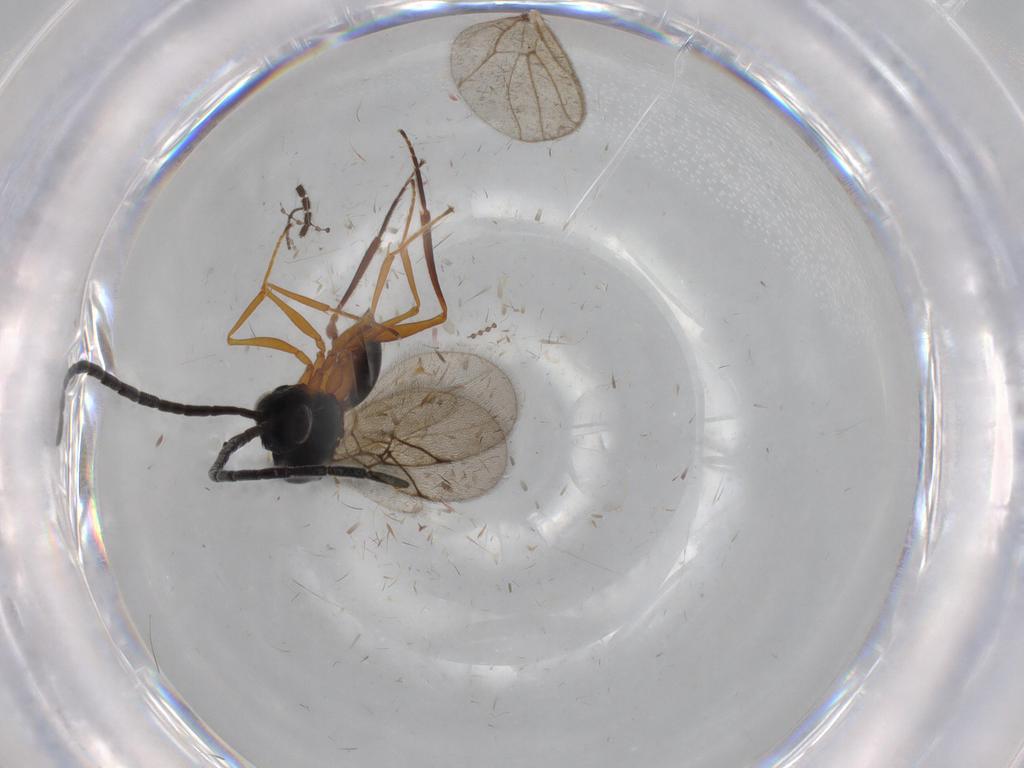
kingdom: Animalia
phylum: Arthropoda
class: Insecta
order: Hymenoptera
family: Figitidae
